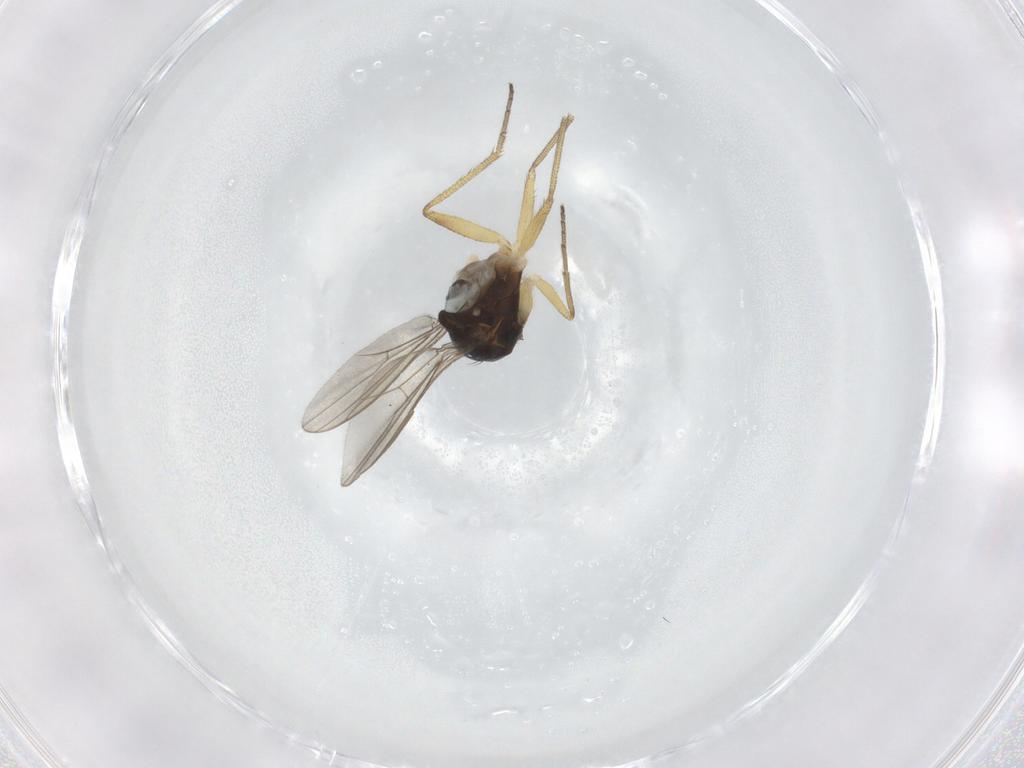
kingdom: Animalia
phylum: Arthropoda
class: Insecta
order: Diptera
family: Dolichopodidae
